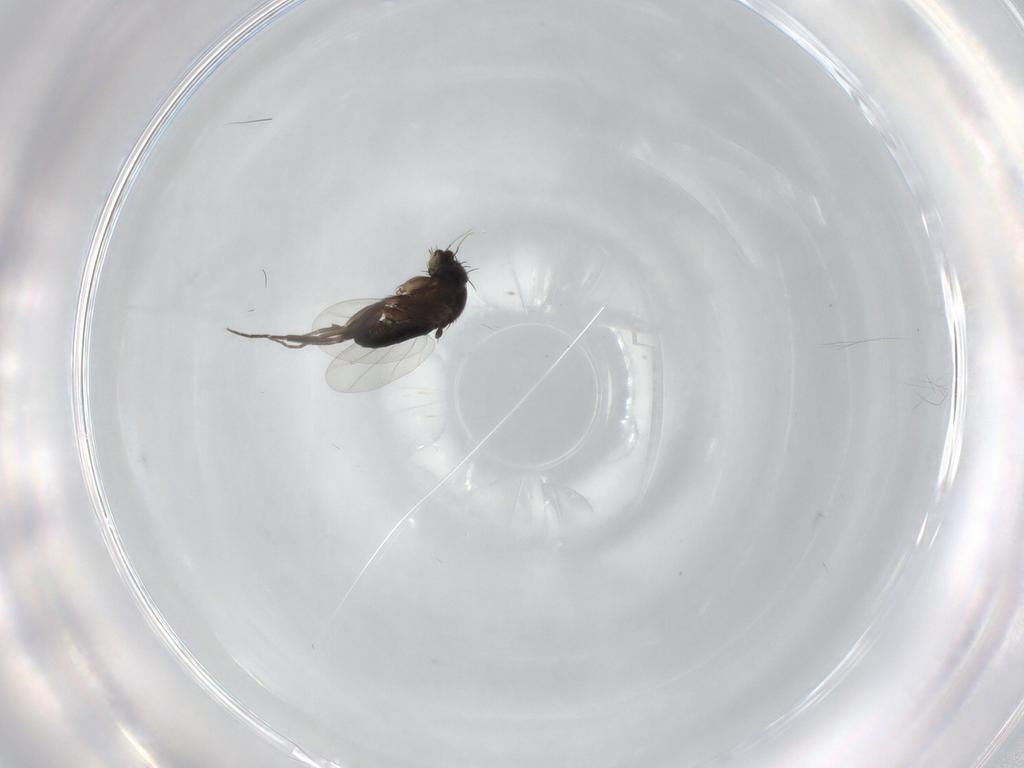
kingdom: Animalia
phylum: Arthropoda
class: Insecta
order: Diptera
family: Phoridae
